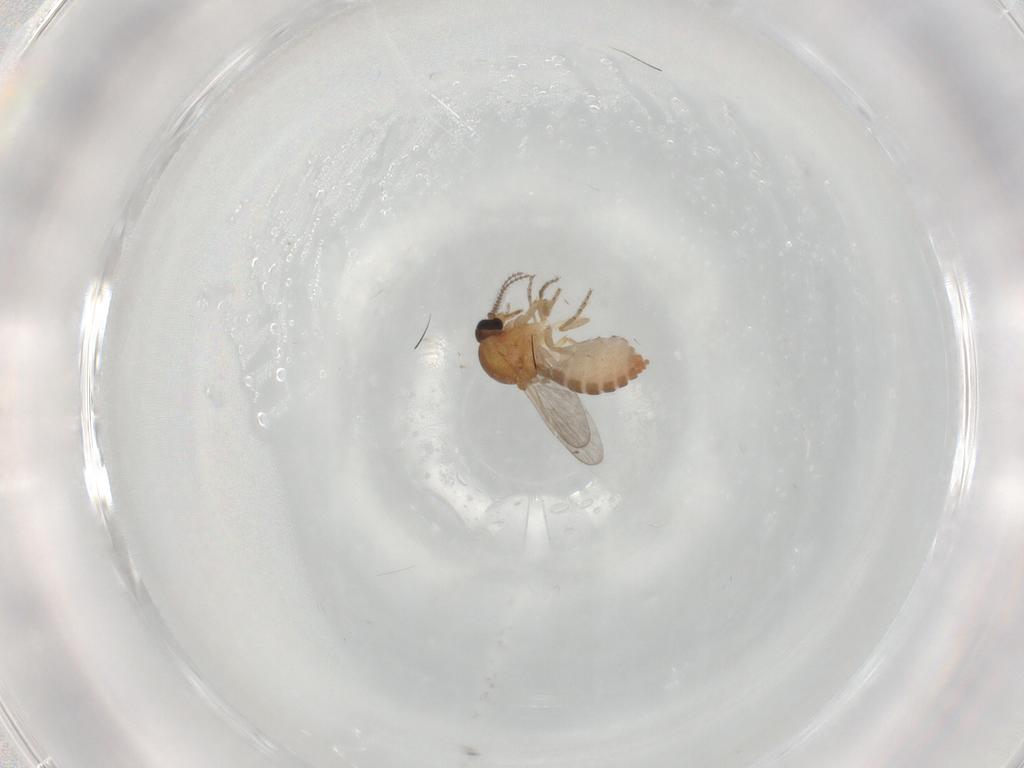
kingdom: Animalia
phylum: Arthropoda
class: Insecta
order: Diptera
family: Ceratopogonidae
